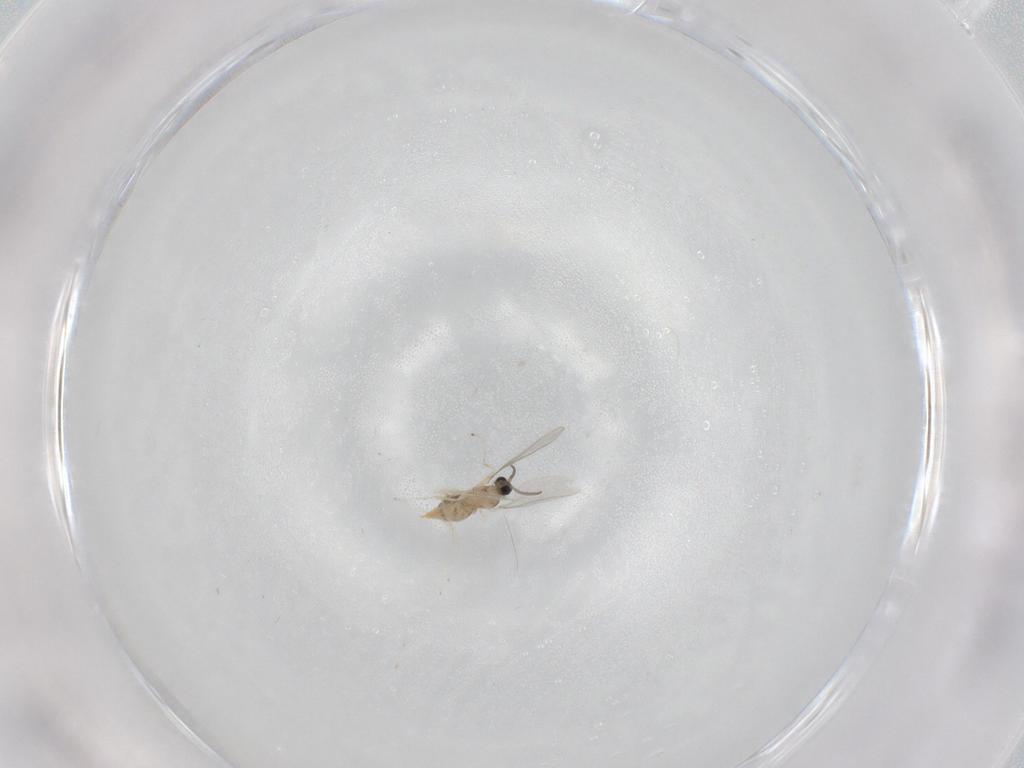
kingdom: Animalia
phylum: Arthropoda
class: Insecta
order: Diptera
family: Cecidomyiidae
